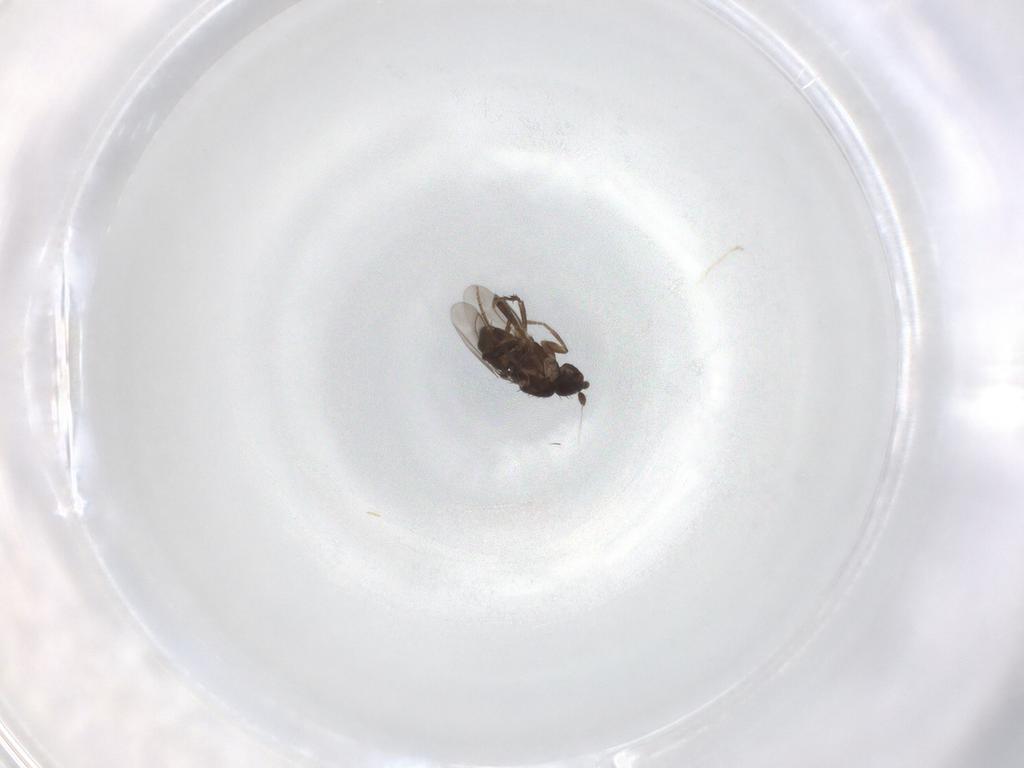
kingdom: Animalia
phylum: Arthropoda
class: Insecta
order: Diptera
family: Sphaeroceridae
